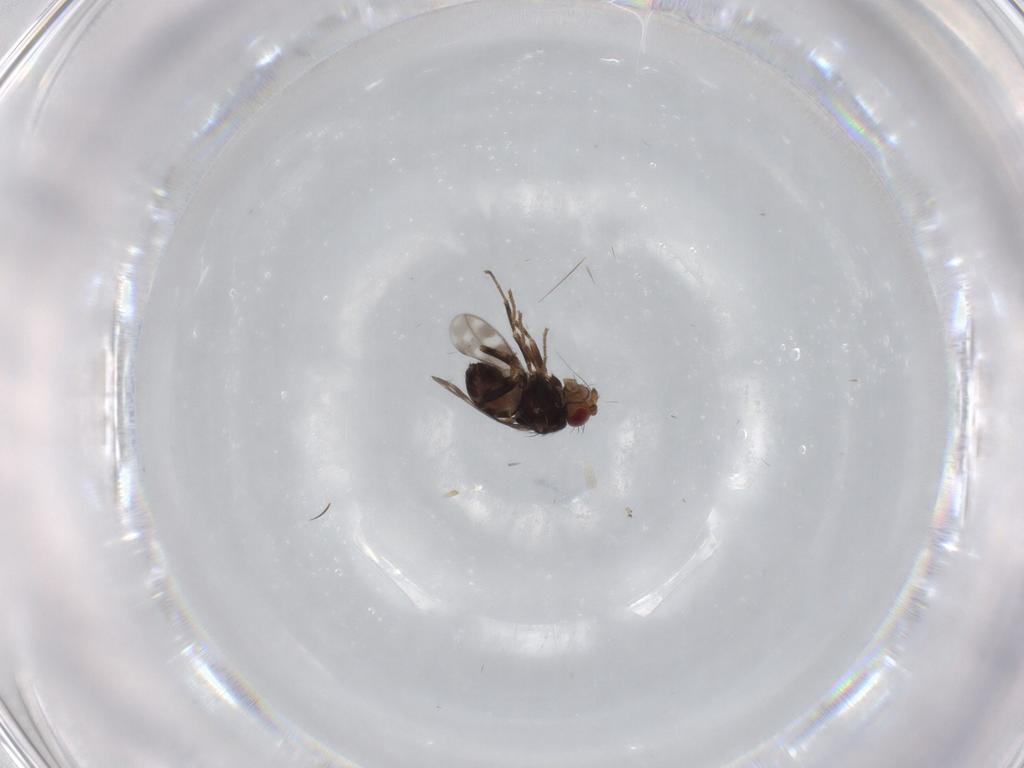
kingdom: Animalia
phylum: Arthropoda
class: Insecta
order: Diptera
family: Sphaeroceridae
